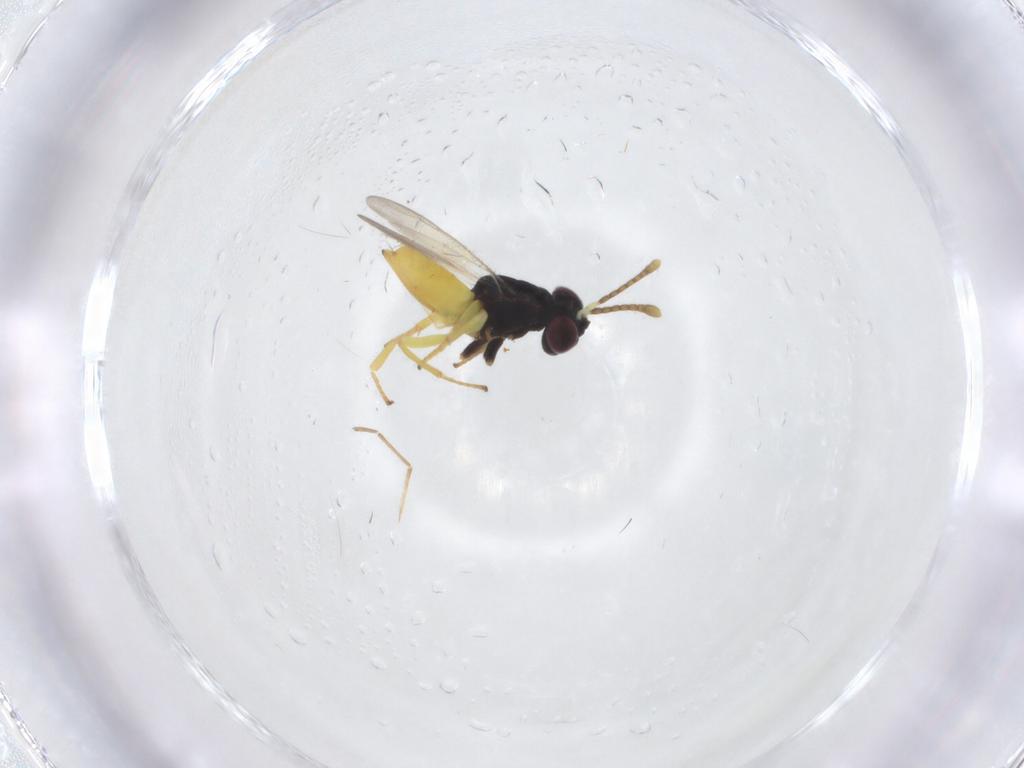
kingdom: Animalia
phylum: Arthropoda
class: Insecta
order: Hymenoptera
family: Trichogrammatidae
